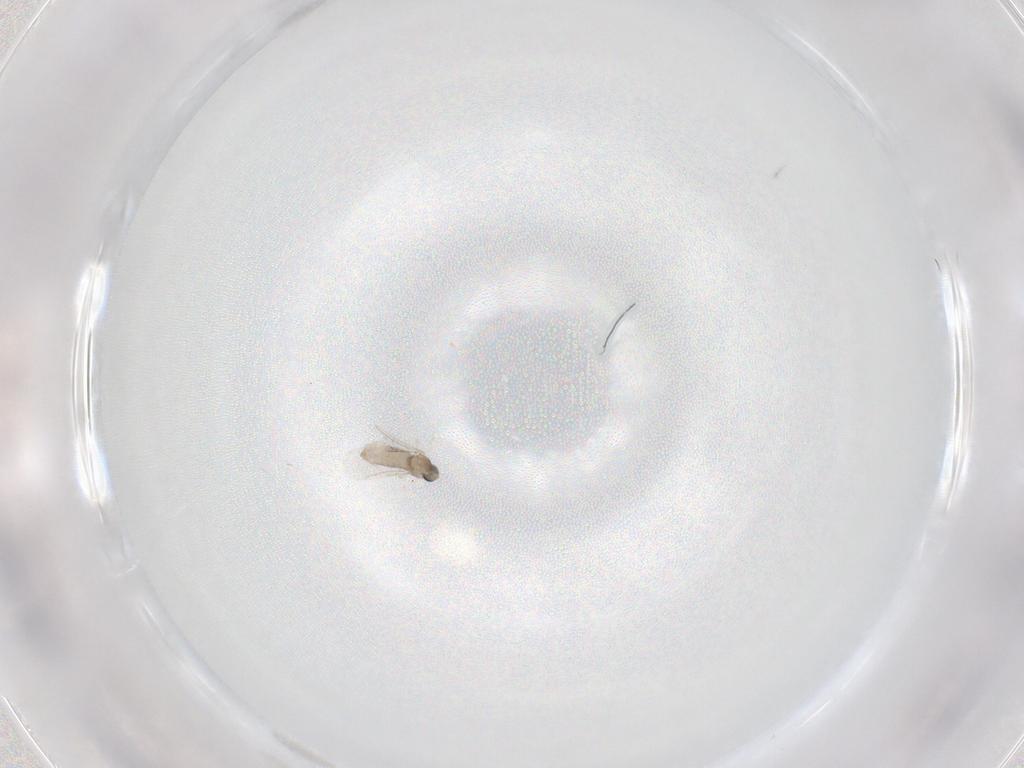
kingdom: Animalia
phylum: Arthropoda
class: Insecta
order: Diptera
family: Cecidomyiidae
